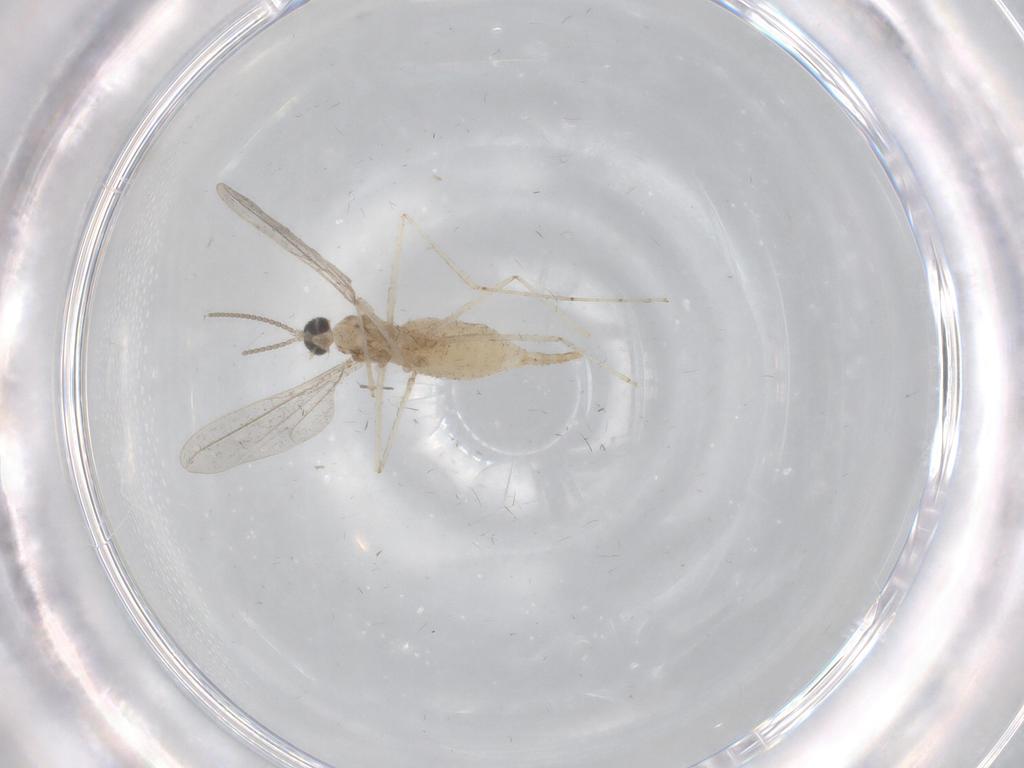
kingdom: Animalia
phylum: Arthropoda
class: Insecta
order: Diptera
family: Cecidomyiidae
